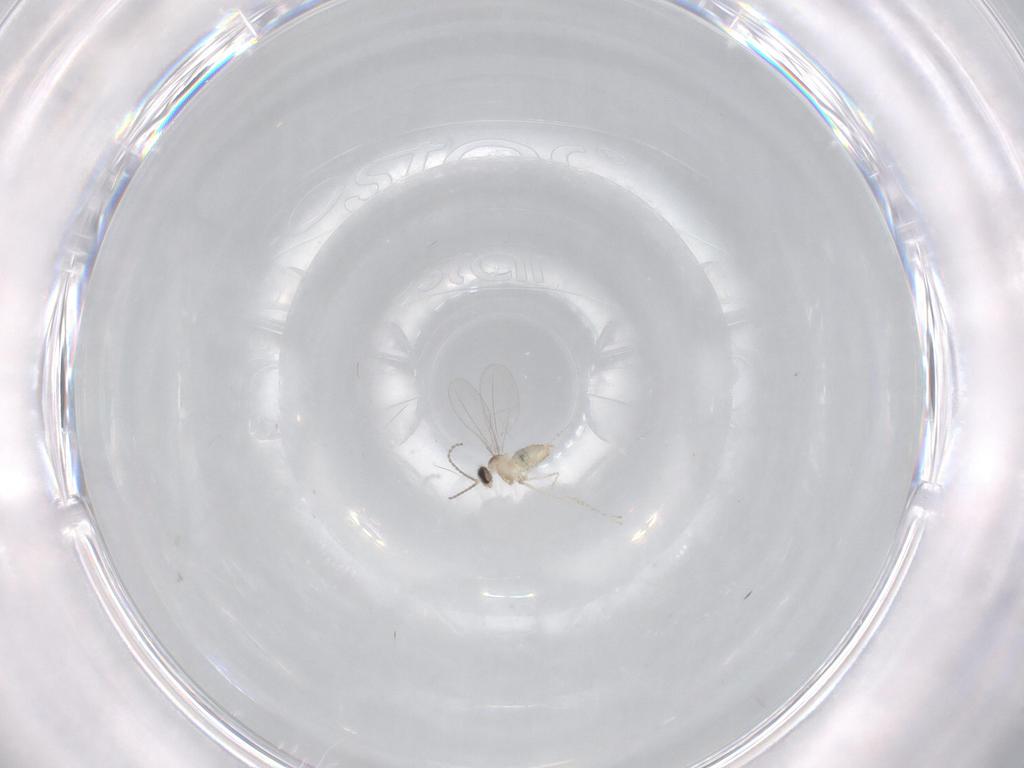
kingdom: Animalia
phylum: Arthropoda
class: Insecta
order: Diptera
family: Cecidomyiidae
